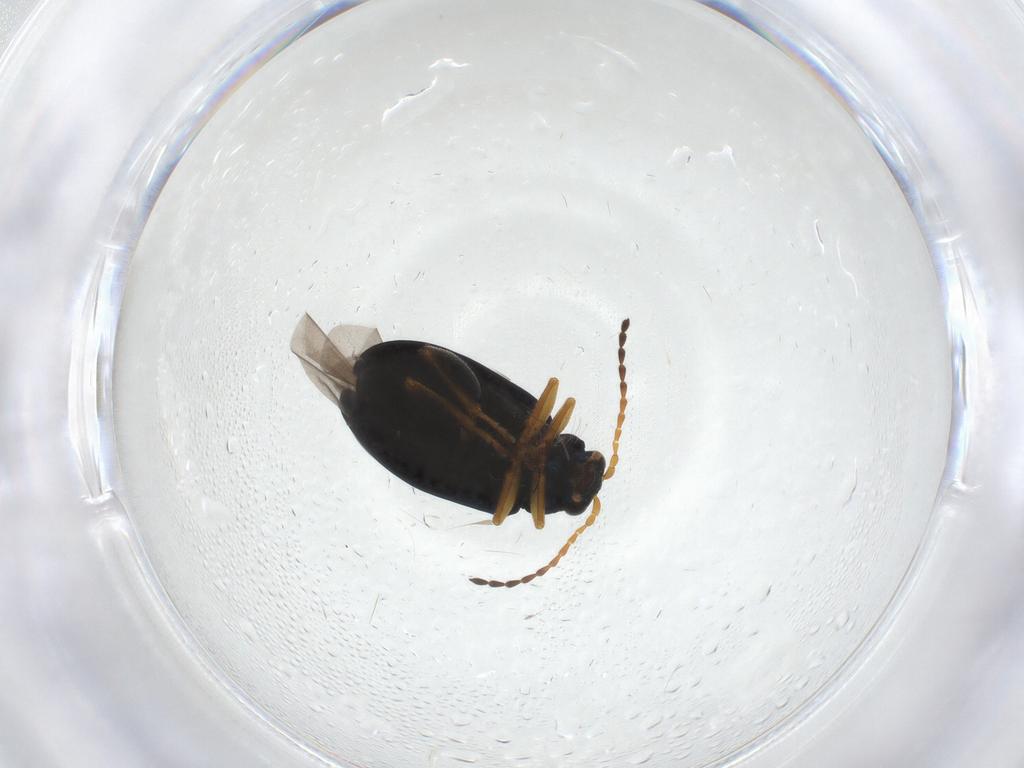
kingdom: Animalia
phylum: Arthropoda
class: Insecta
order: Coleoptera
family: Chrysomelidae
